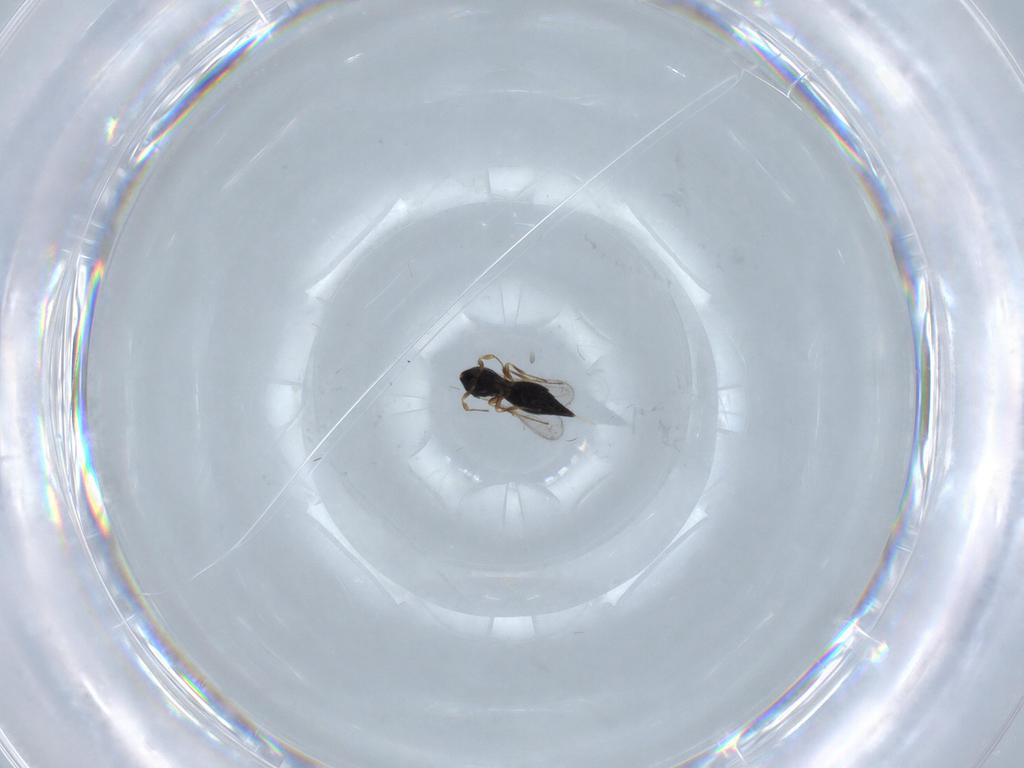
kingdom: Animalia
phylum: Arthropoda
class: Insecta
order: Hymenoptera
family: Scelionidae
